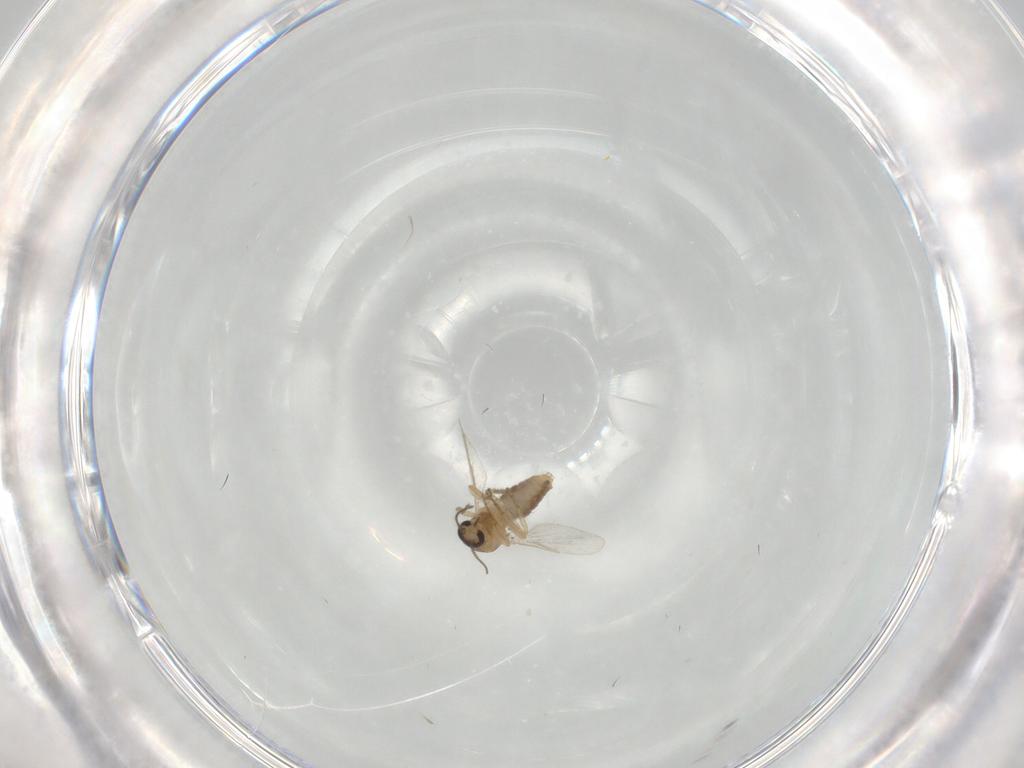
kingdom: Animalia
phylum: Arthropoda
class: Insecta
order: Diptera
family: Ceratopogonidae
